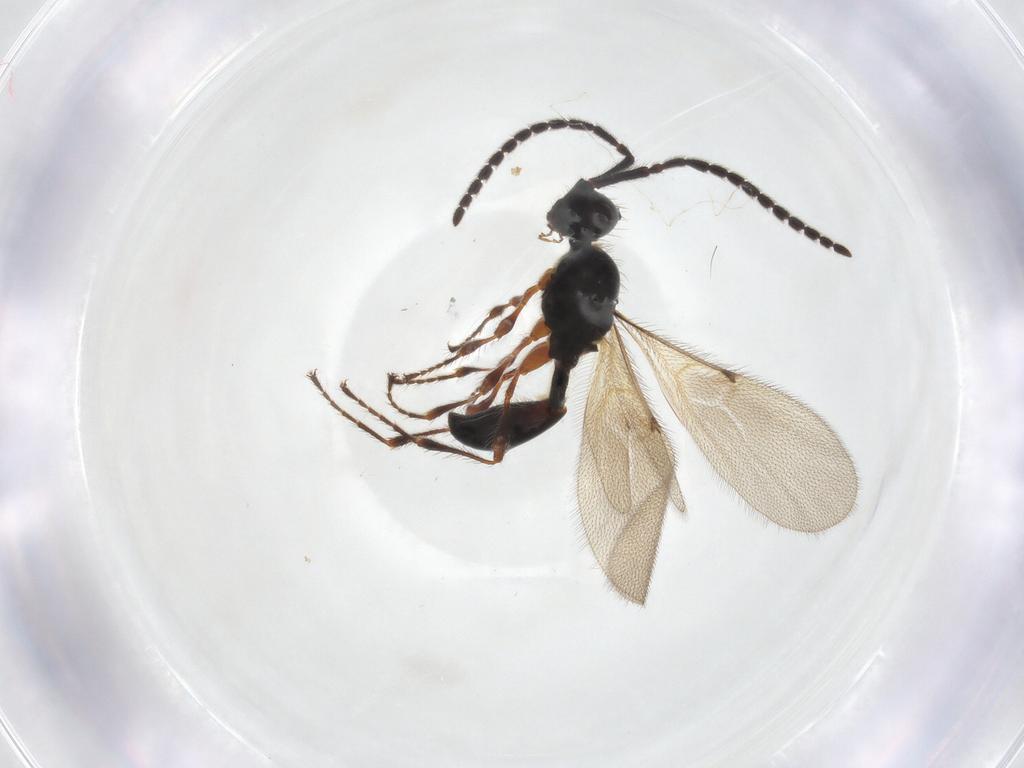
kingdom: Animalia
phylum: Arthropoda
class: Insecta
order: Hymenoptera
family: Diapriidae
